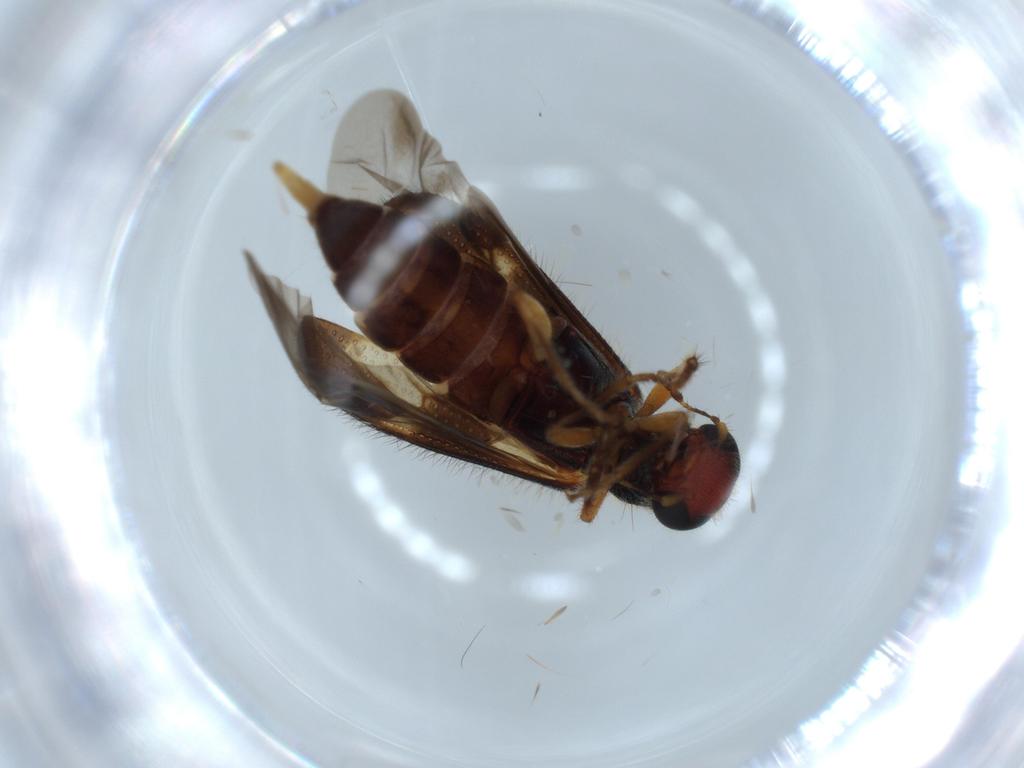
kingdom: Animalia
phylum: Arthropoda
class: Insecta
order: Coleoptera
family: Cleridae
